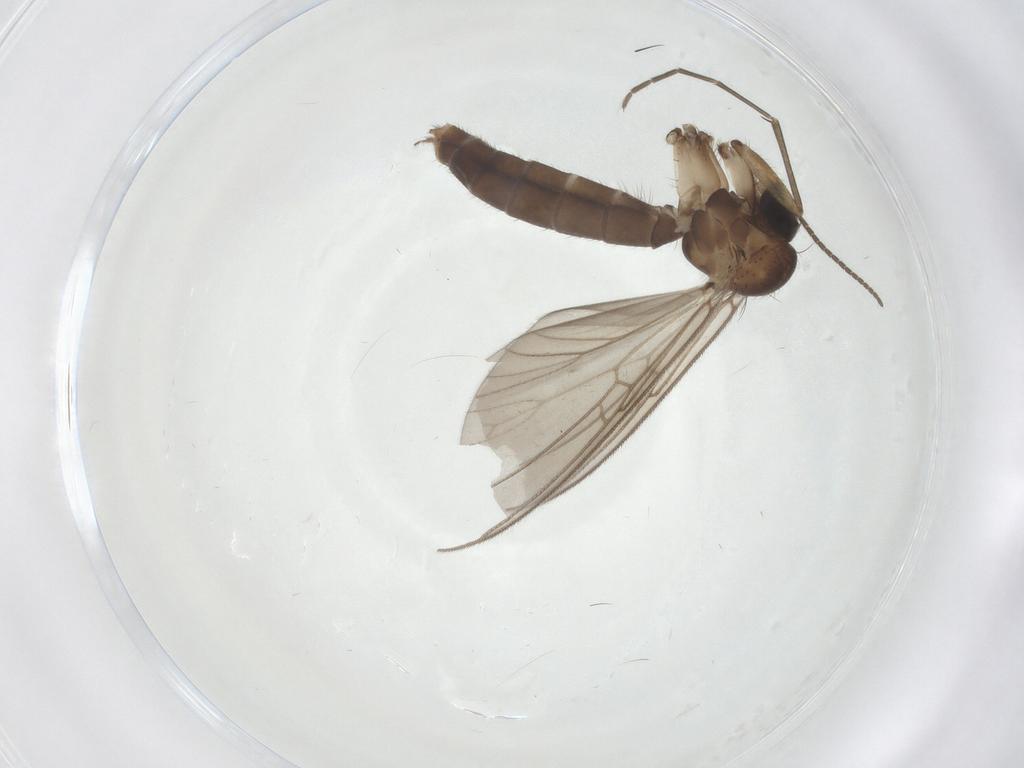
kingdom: Animalia
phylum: Arthropoda
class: Insecta
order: Diptera
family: Mycetophilidae
